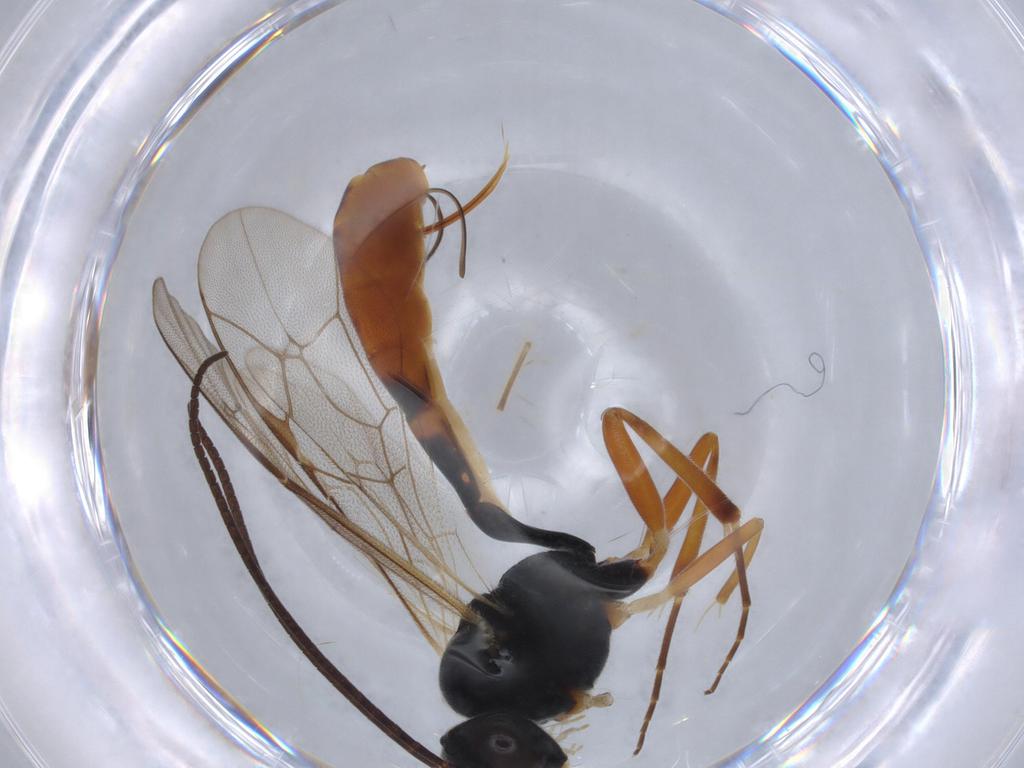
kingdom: Animalia
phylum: Arthropoda
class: Insecta
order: Hymenoptera
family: Ichneumonidae
